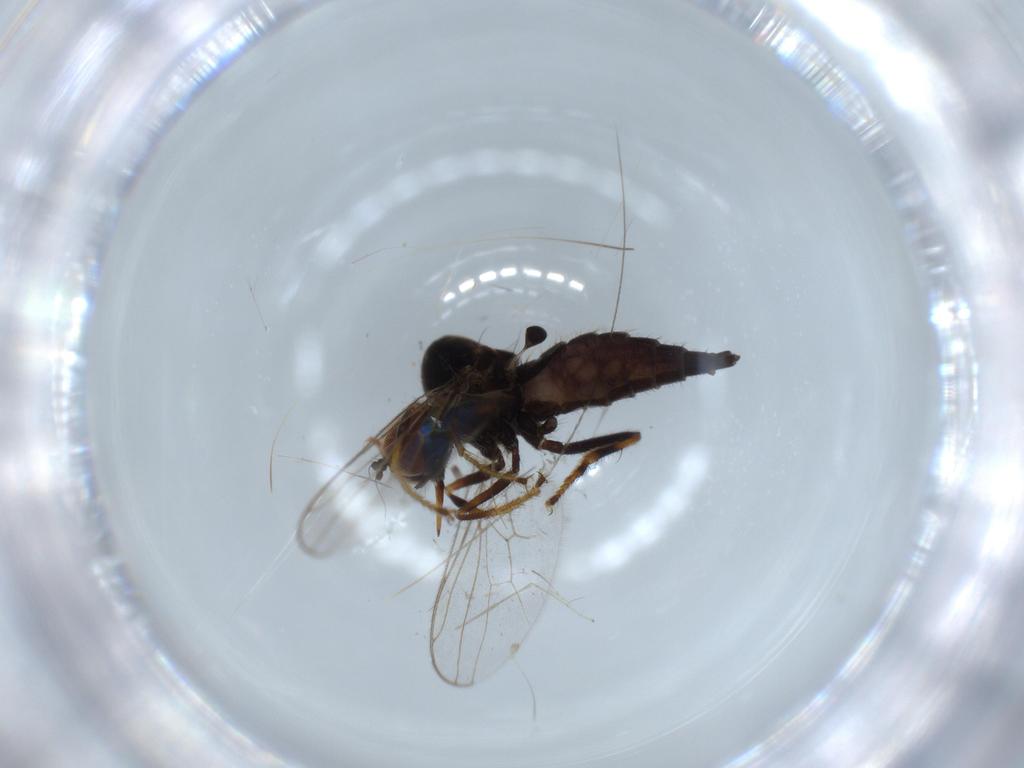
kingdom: Animalia
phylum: Arthropoda
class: Insecta
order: Diptera
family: Hybotidae
